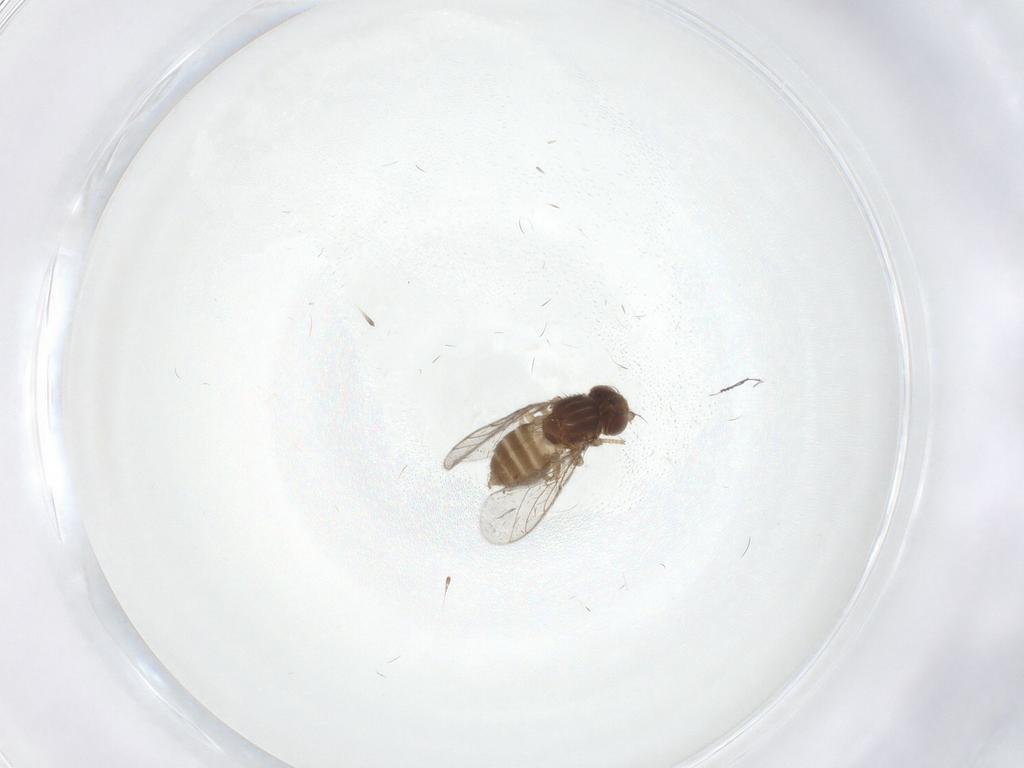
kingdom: Animalia
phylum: Arthropoda
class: Insecta
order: Diptera
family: Chloropidae
